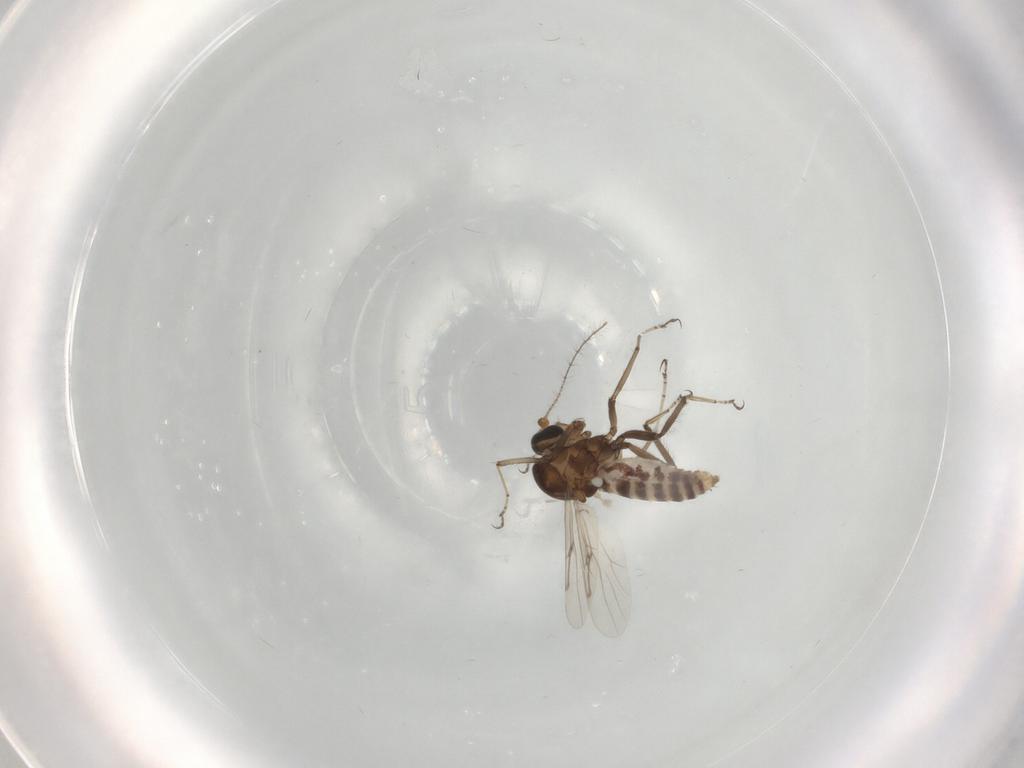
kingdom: Animalia
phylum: Arthropoda
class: Insecta
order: Diptera
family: Ceratopogonidae
